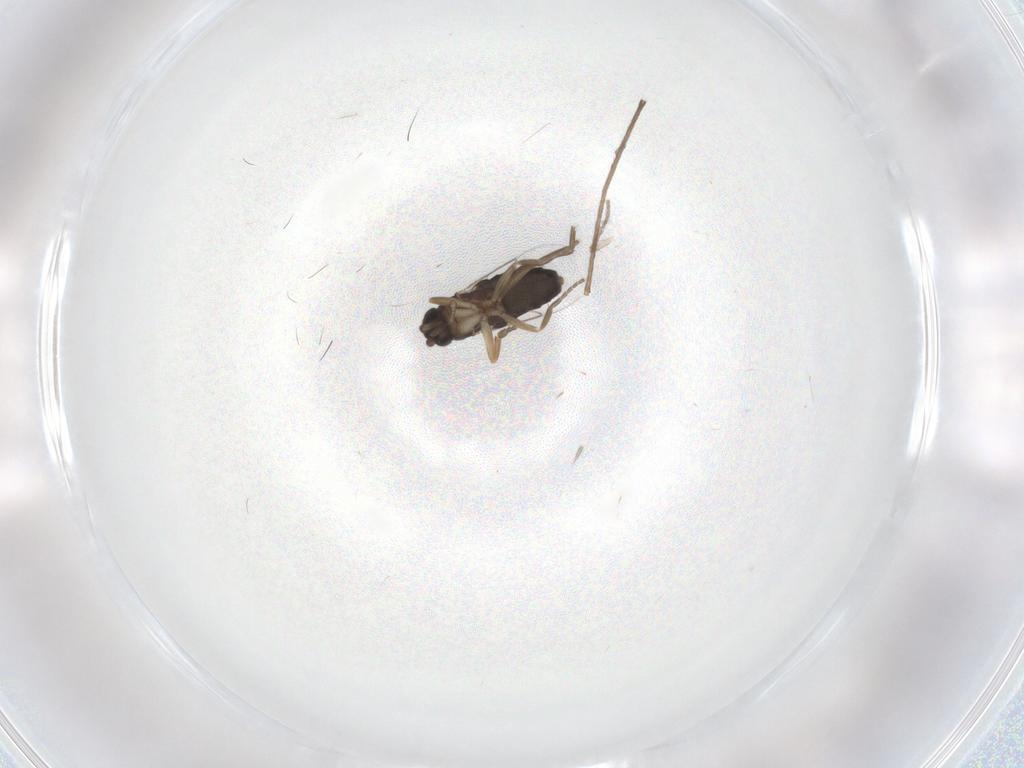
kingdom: Animalia
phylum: Arthropoda
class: Insecta
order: Diptera
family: Phoridae
